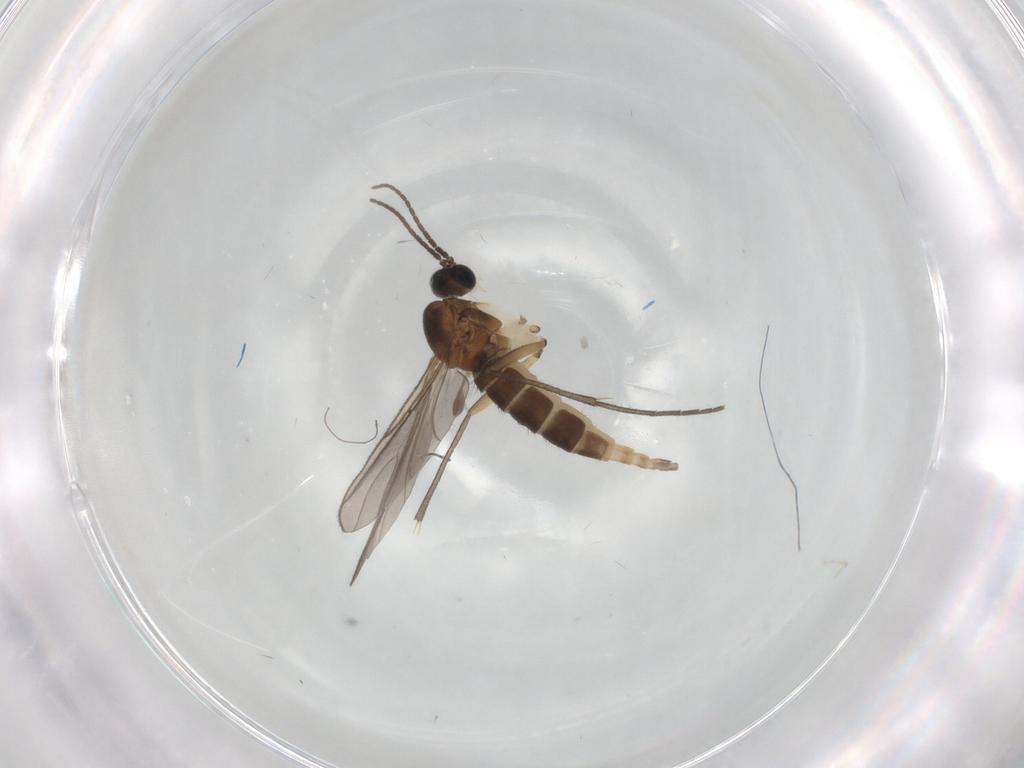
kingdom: Animalia
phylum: Arthropoda
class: Insecta
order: Diptera
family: Sciaridae
